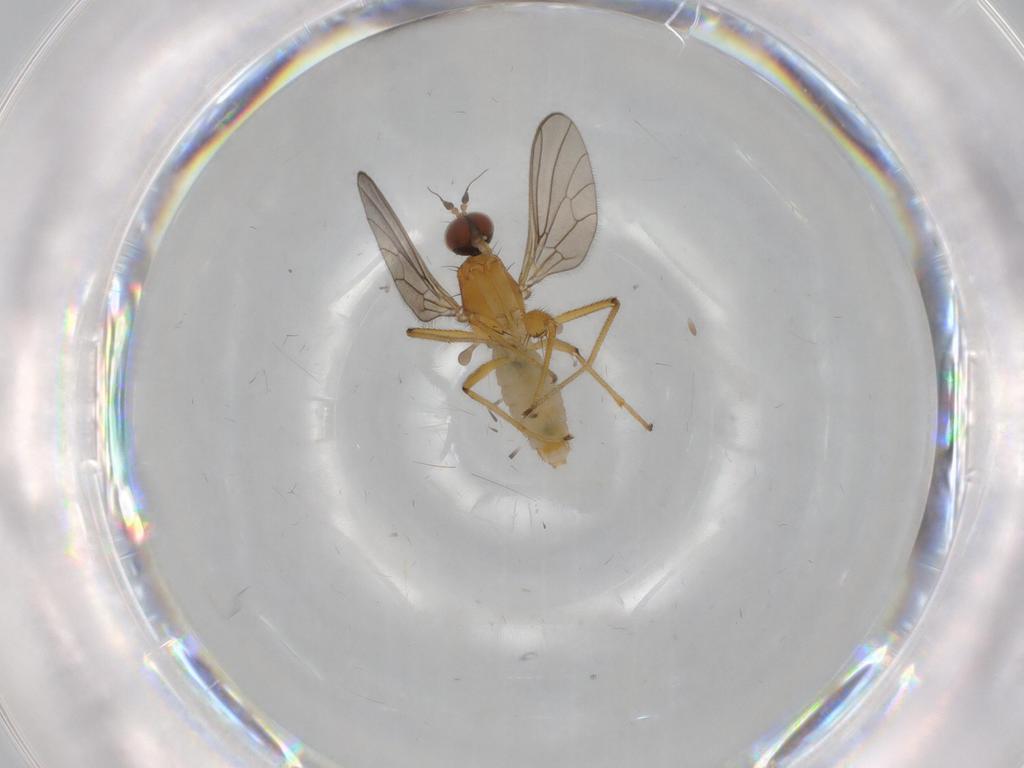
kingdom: Animalia
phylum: Arthropoda
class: Insecta
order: Diptera
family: Empididae
